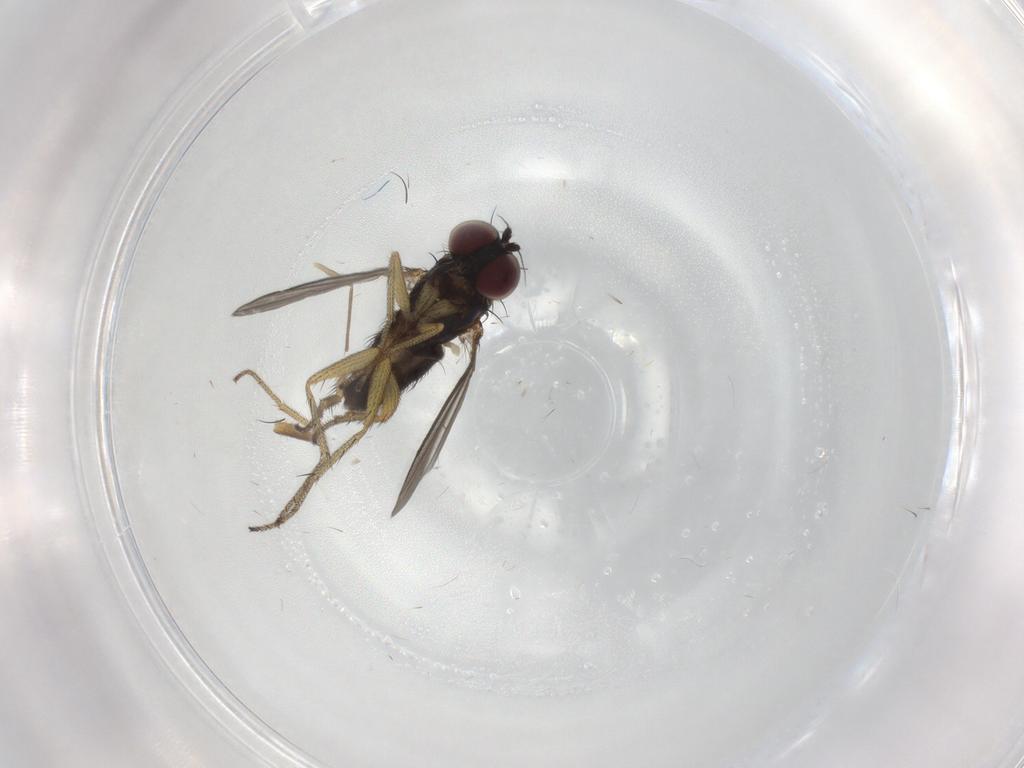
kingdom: Animalia
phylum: Arthropoda
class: Insecta
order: Diptera
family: Dolichopodidae
